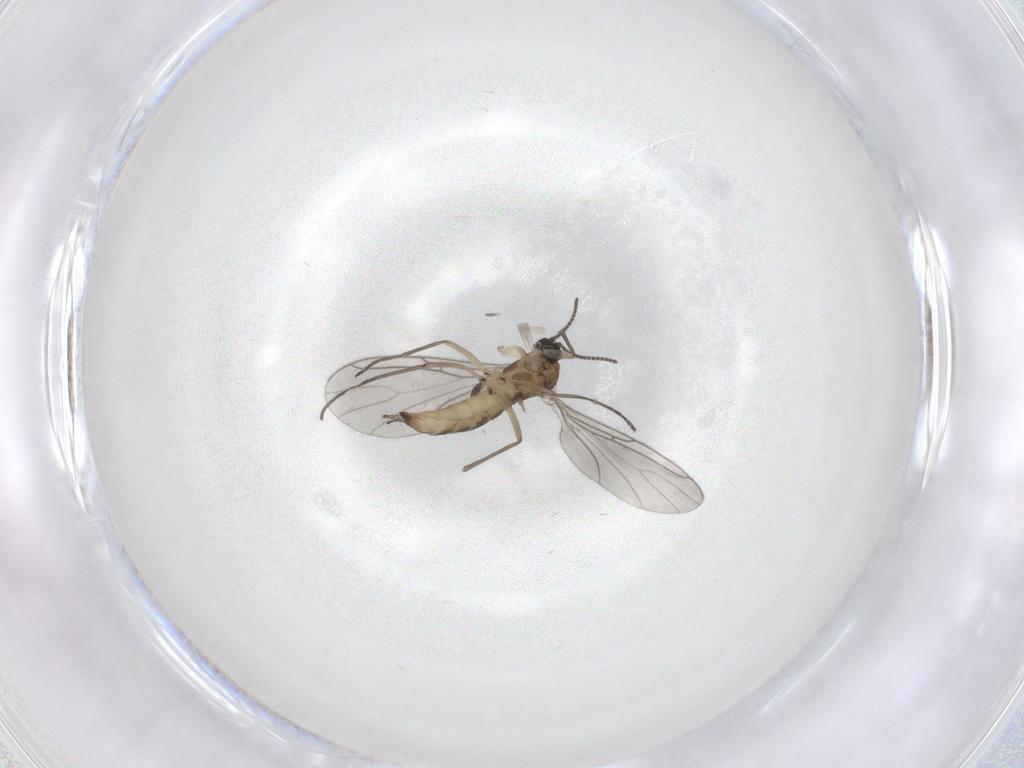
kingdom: Animalia
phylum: Arthropoda
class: Insecta
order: Diptera
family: Sciaridae
